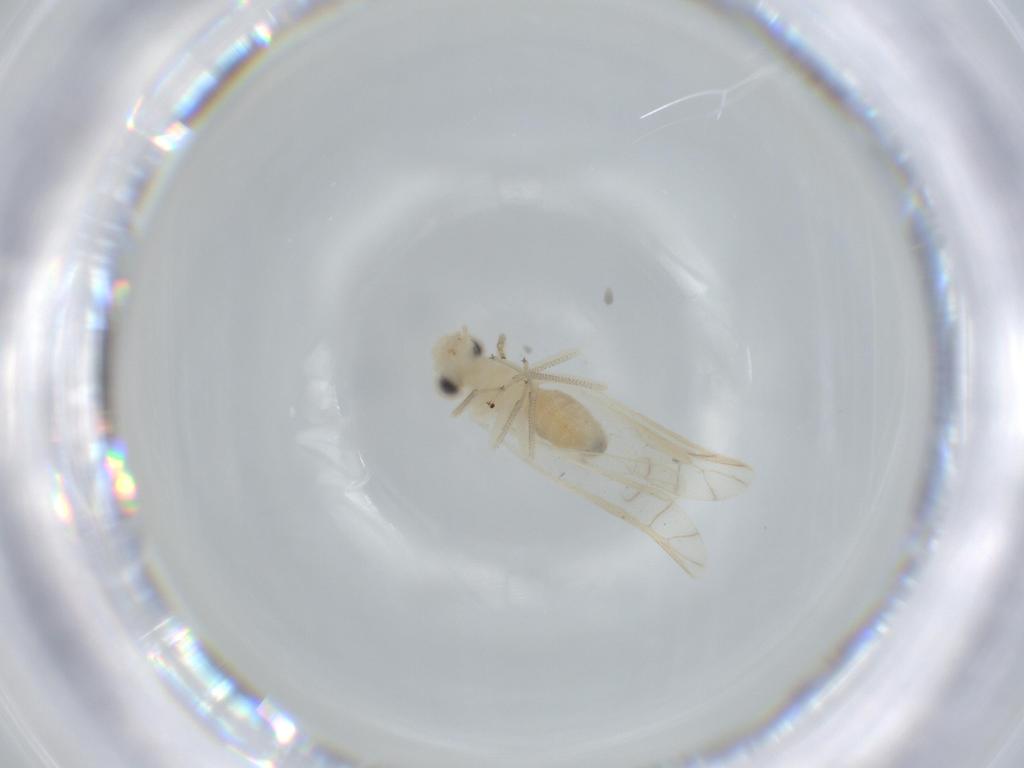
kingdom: Animalia
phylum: Arthropoda
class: Insecta
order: Psocodea
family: Caeciliusidae
